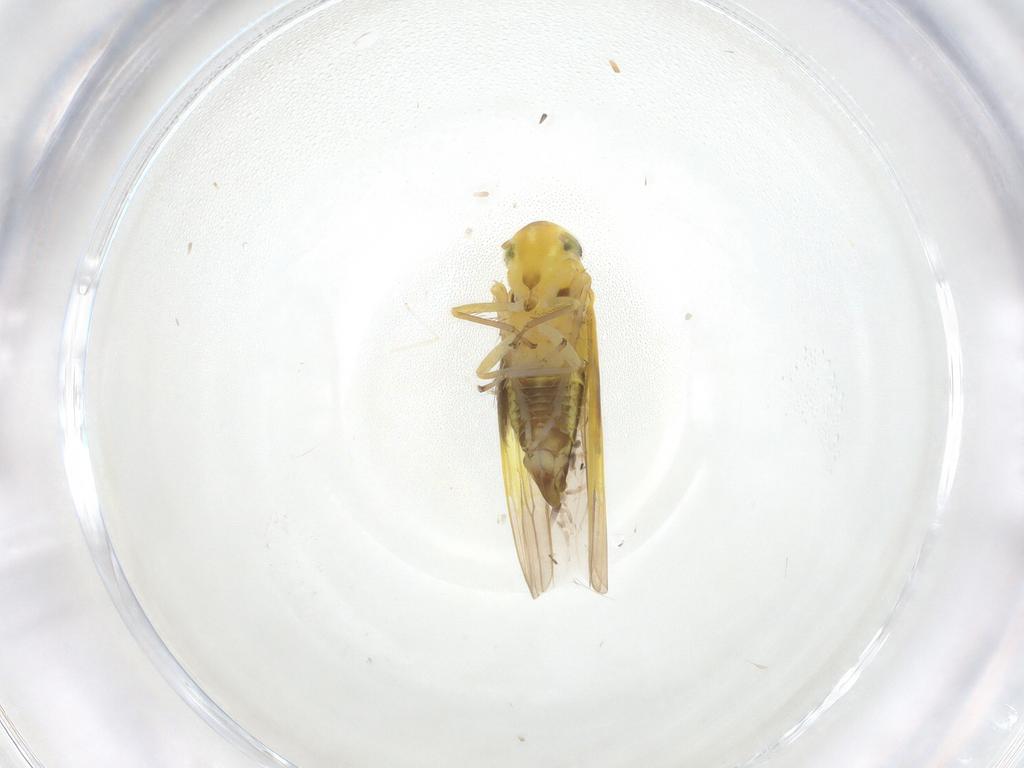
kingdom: Animalia
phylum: Arthropoda
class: Insecta
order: Hemiptera
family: Cicadellidae
